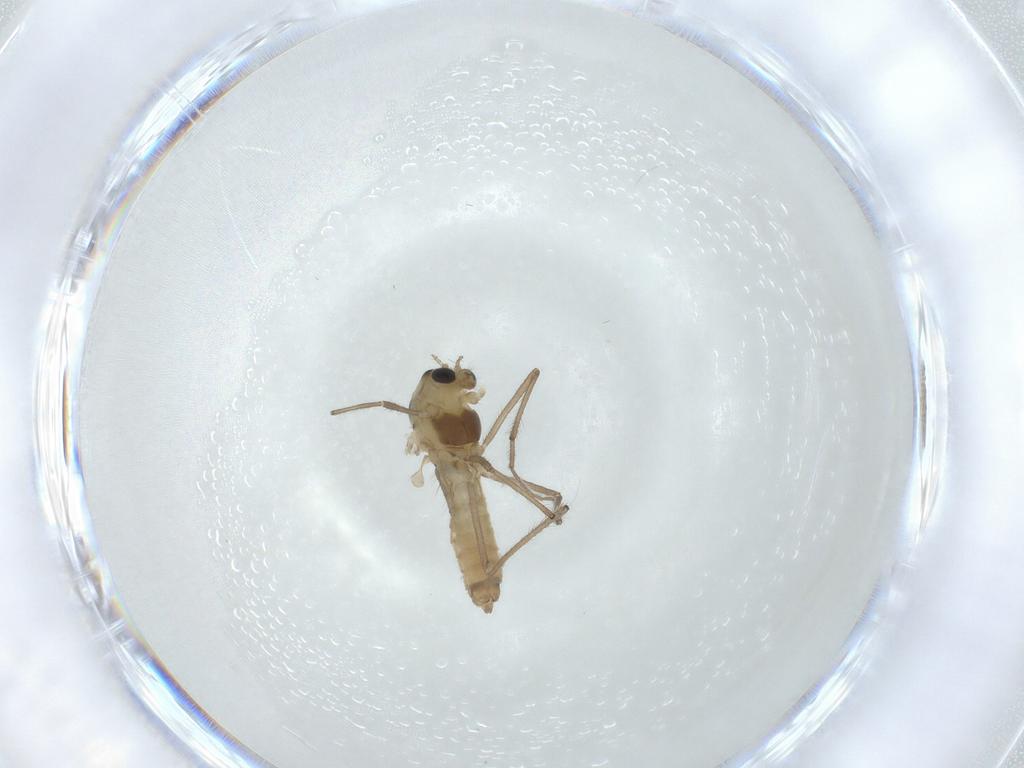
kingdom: Animalia
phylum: Arthropoda
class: Insecta
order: Diptera
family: Chironomidae
